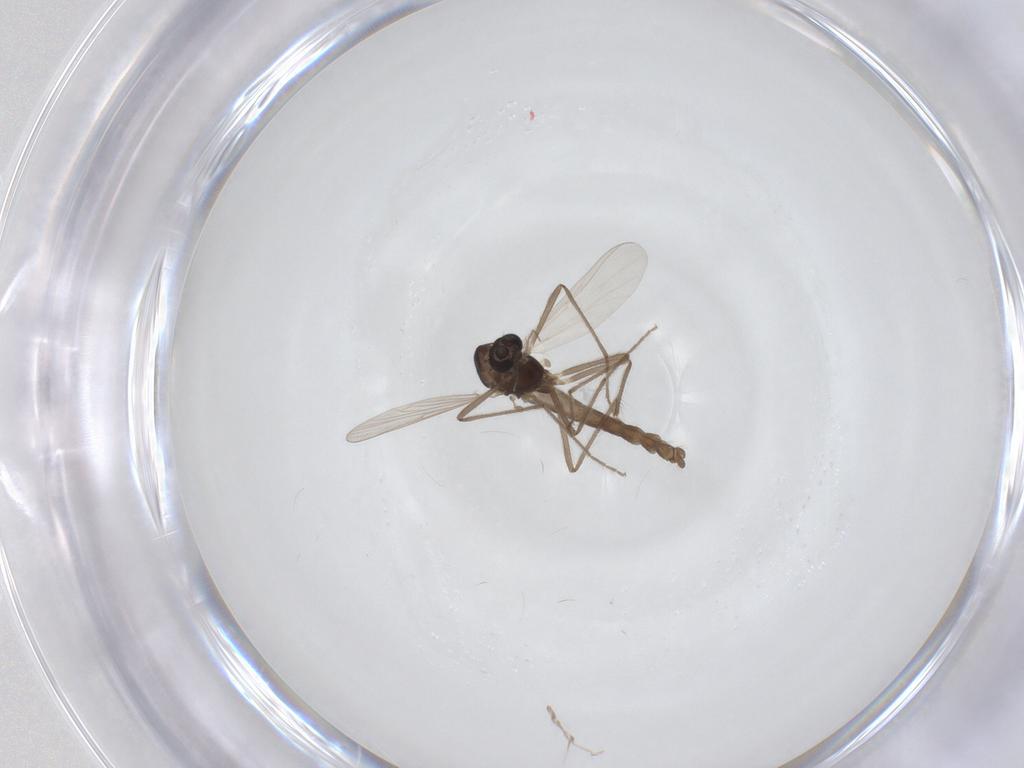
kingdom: Animalia
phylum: Arthropoda
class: Insecta
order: Diptera
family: Chironomidae
